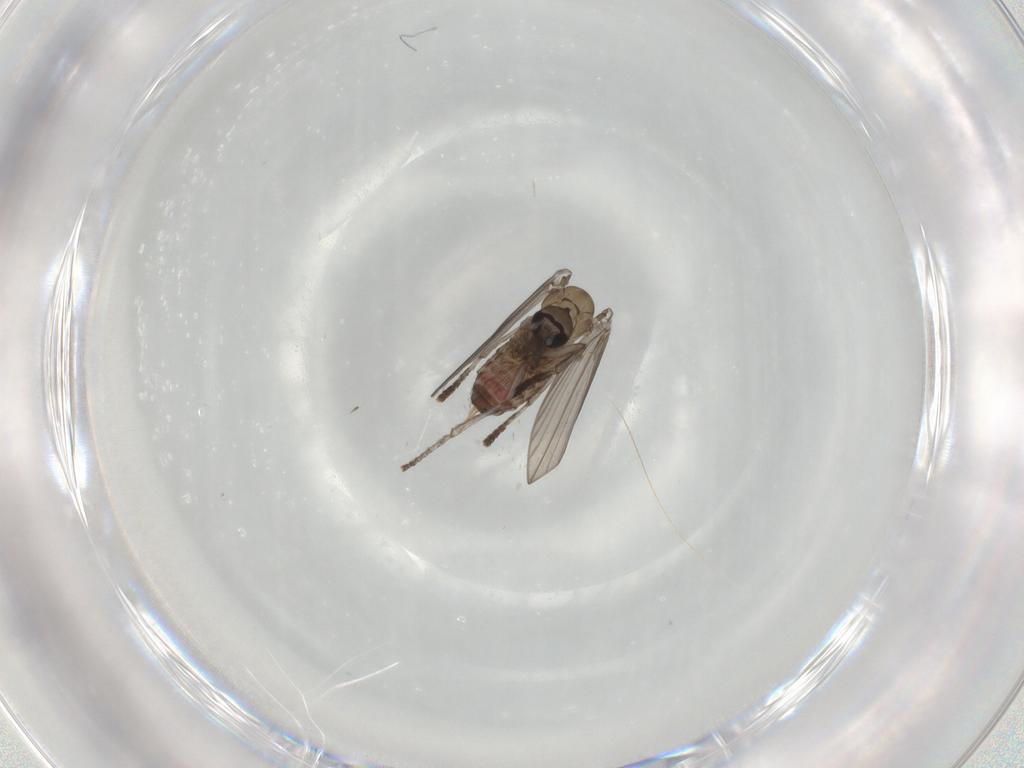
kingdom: Animalia
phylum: Arthropoda
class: Insecta
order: Diptera
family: Psychodidae
